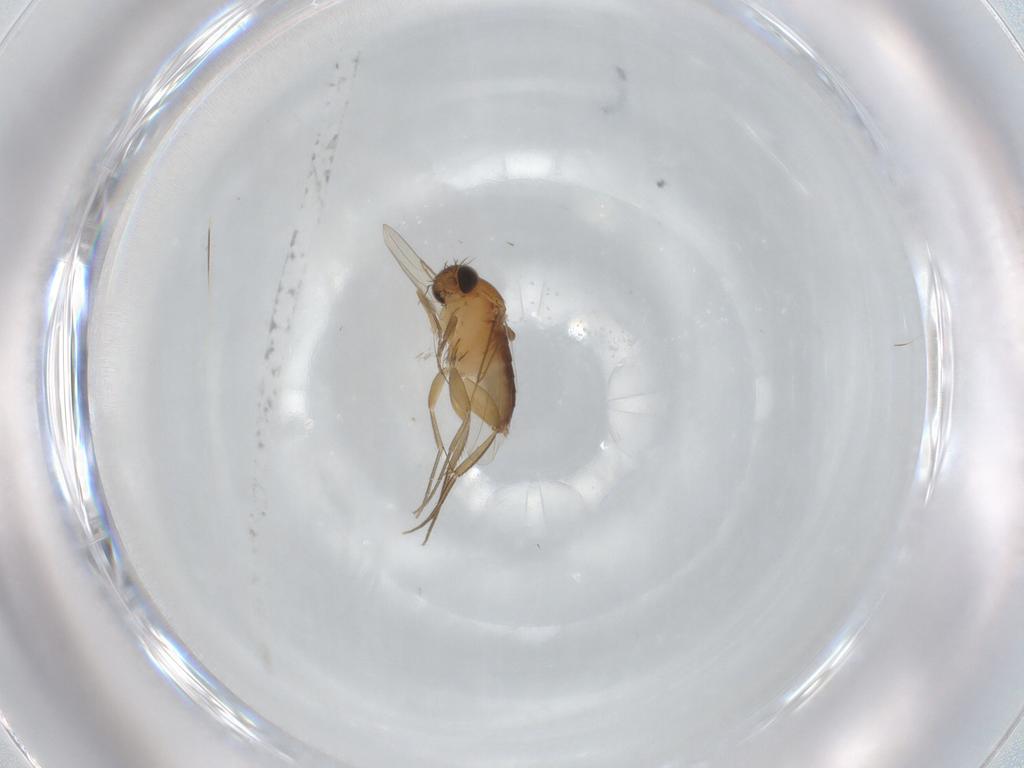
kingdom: Animalia
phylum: Arthropoda
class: Insecta
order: Diptera
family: Phoridae
